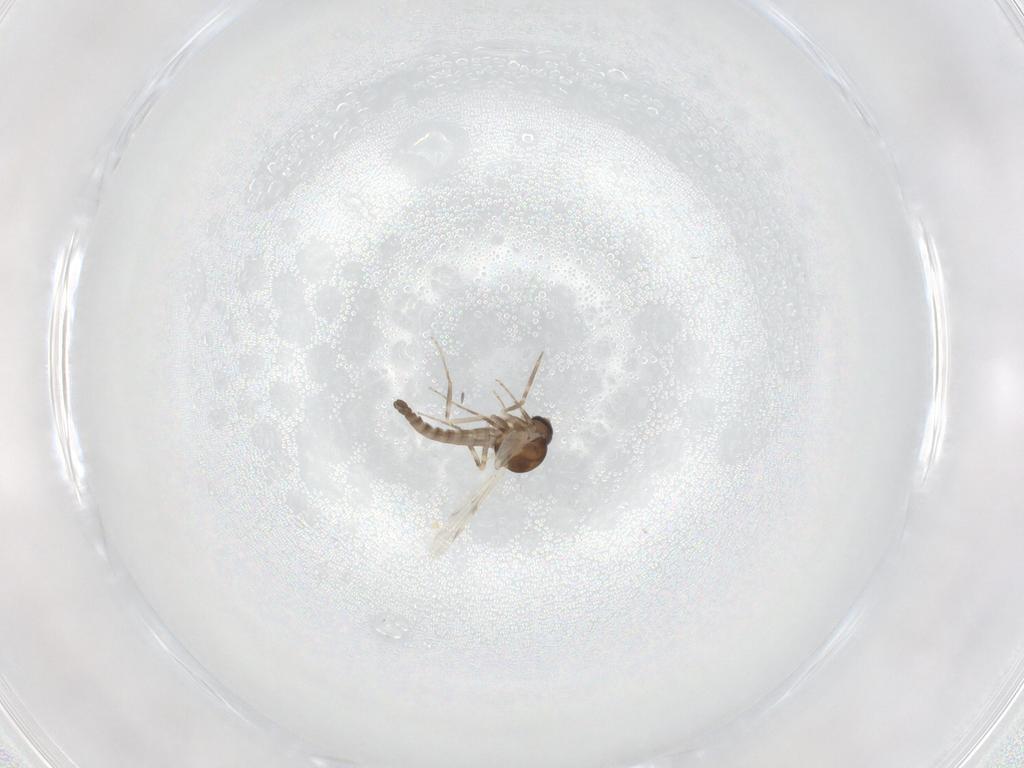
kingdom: Animalia
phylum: Arthropoda
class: Insecta
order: Diptera
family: Ceratopogonidae
